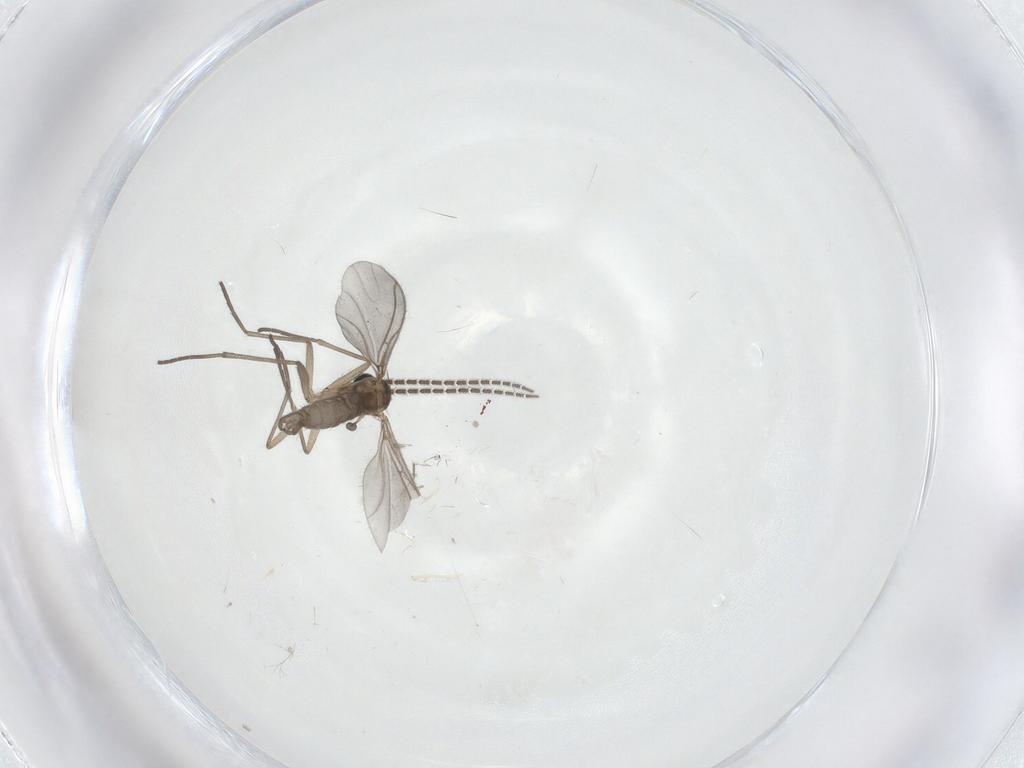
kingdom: Animalia
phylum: Arthropoda
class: Insecta
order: Diptera
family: Sciaridae
